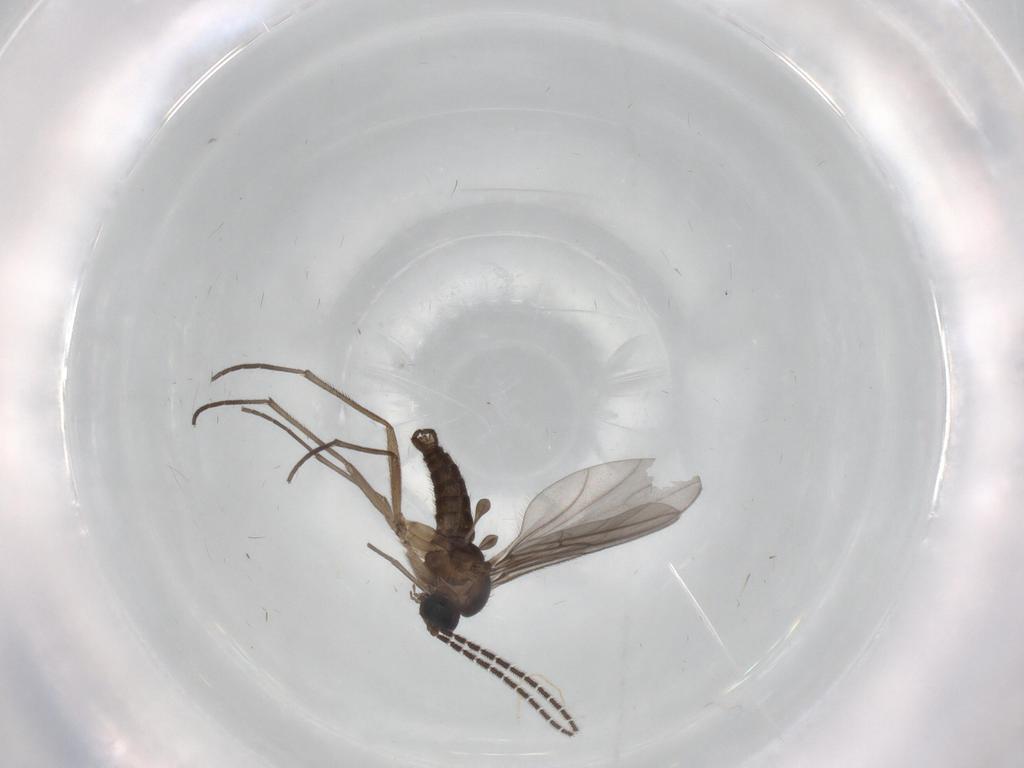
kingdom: Animalia
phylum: Arthropoda
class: Insecta
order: Diptera
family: Sciaridae
